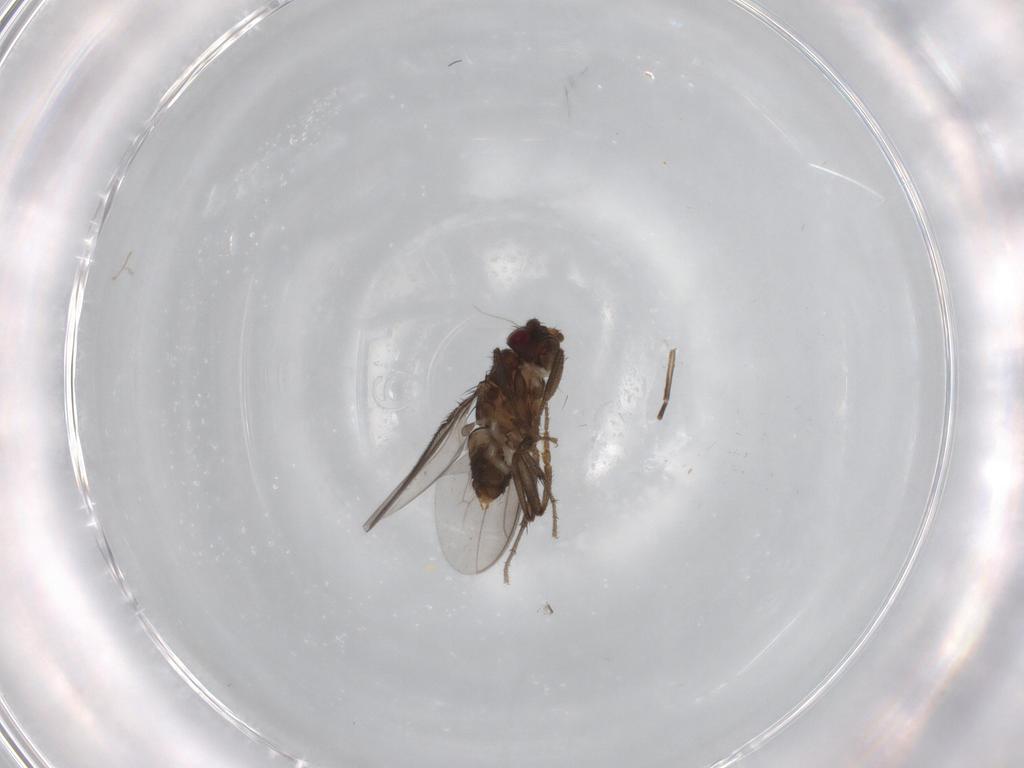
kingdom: Animalia
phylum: Arthropoda
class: Insecta
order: Diptera
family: Sphaeroceridae
